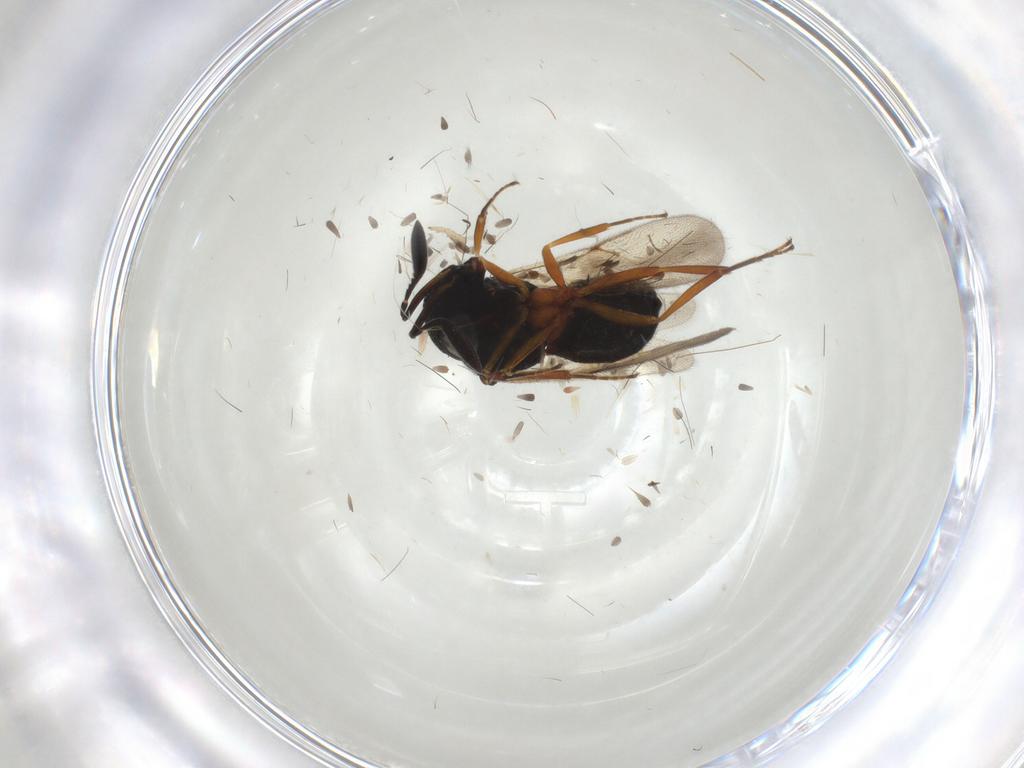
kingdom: Animalia
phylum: Arthropoda
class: Insecta
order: Hymenoptera
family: Scelionidae
